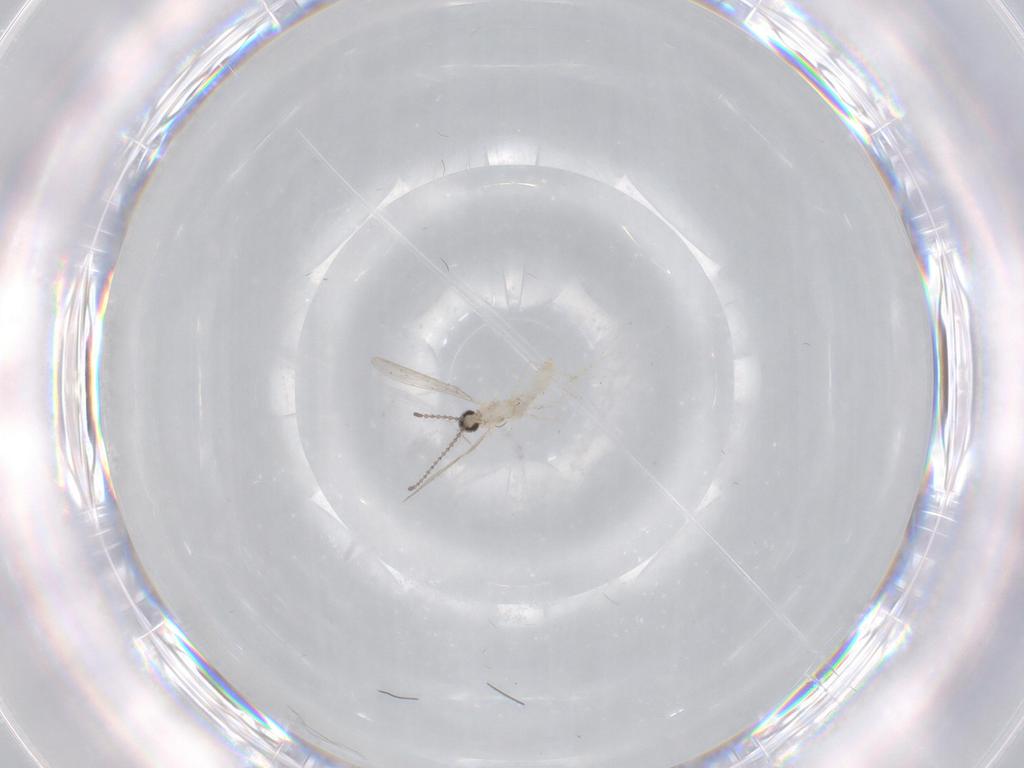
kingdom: Animalia
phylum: Arthropoda
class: Insecta
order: Diptera
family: Cecidomyiidae
